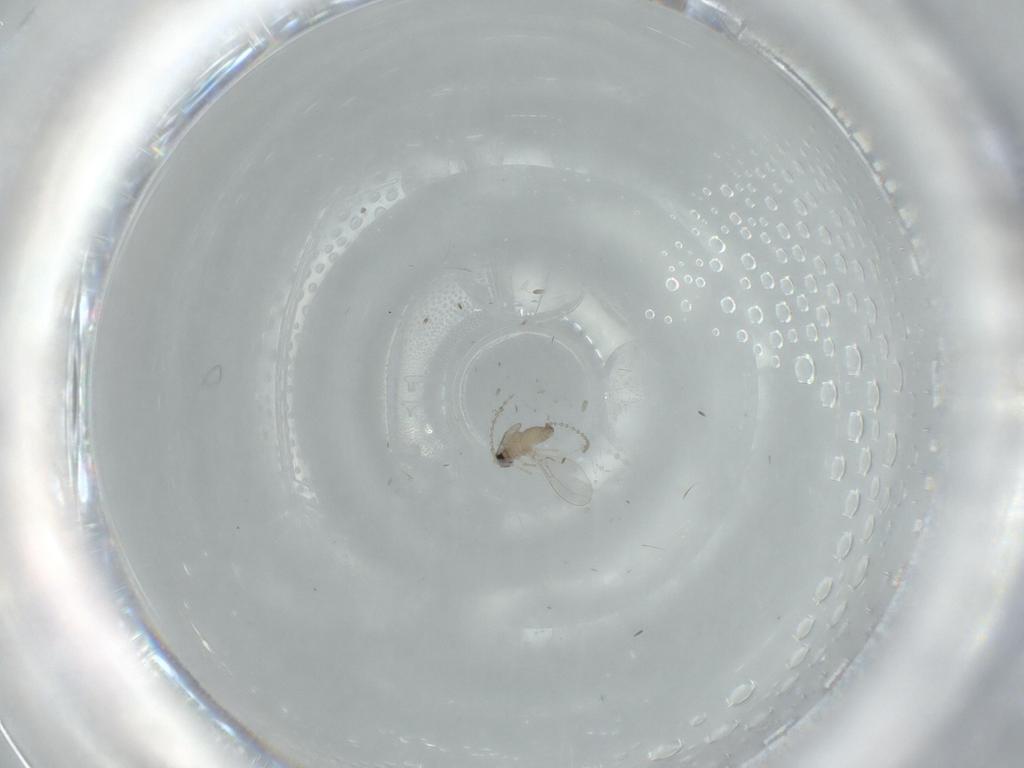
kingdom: Animalia
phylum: Arthropoda
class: Insecta
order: Diptera
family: Cecidomyiidae
